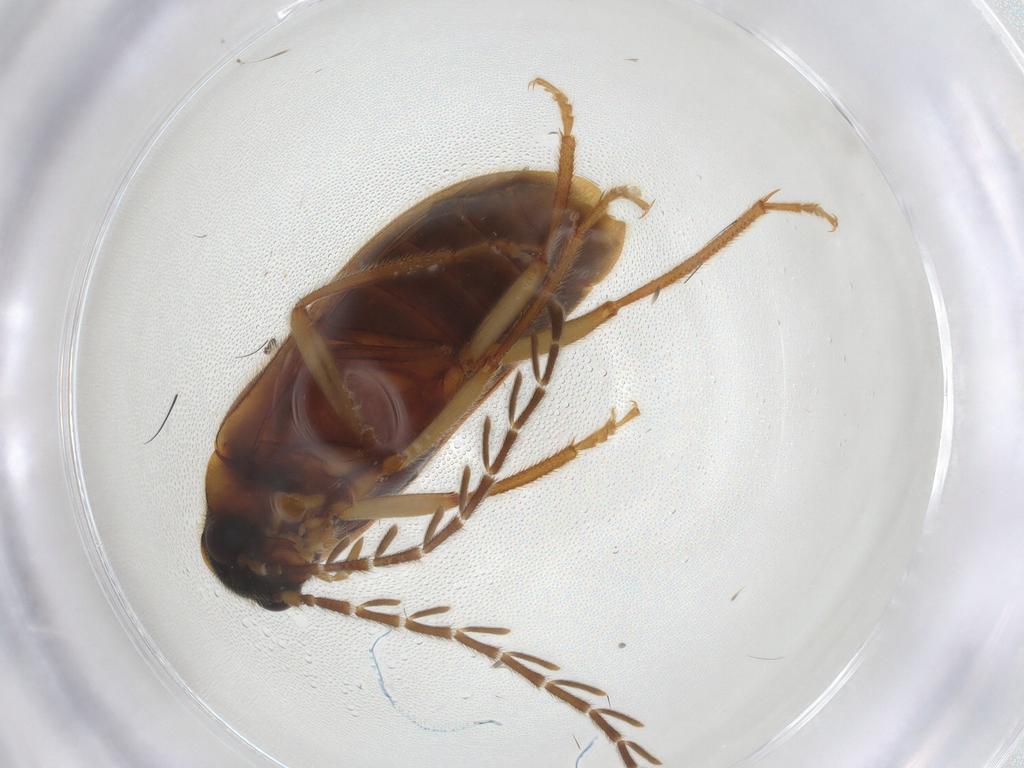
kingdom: Animalia
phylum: Arthropoda
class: Insecta
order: Coleoptera
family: Ptilodactylidae
